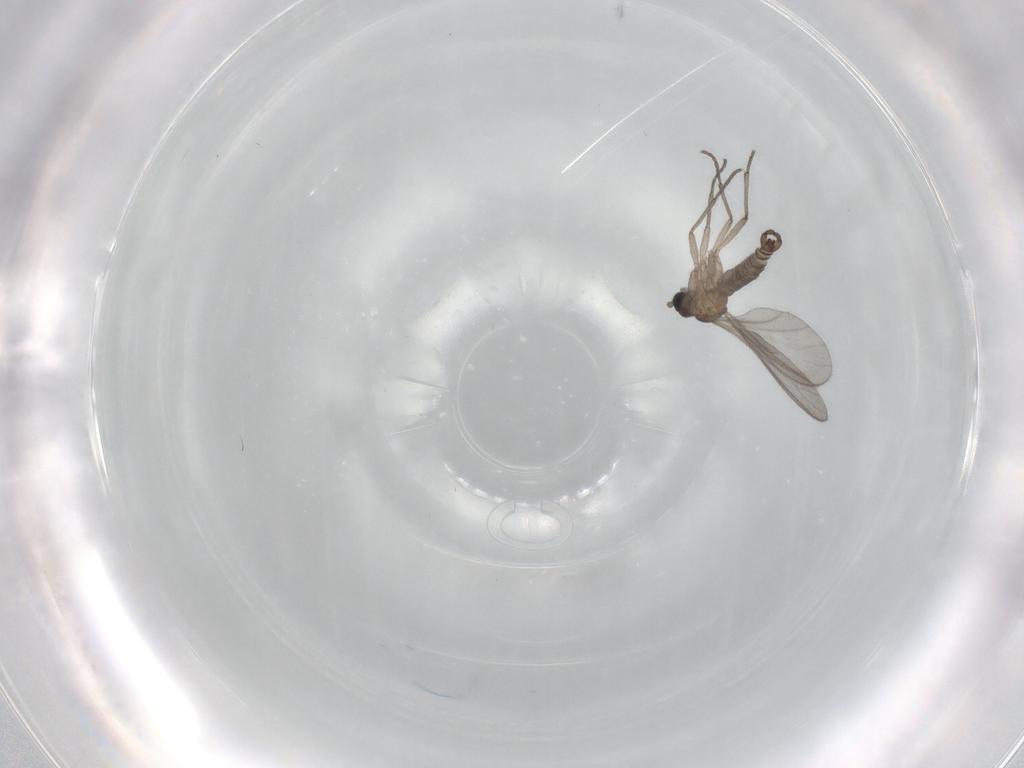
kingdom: Animalia
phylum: Arthropoda
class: Insecta
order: Diptera
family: Sciaridae
